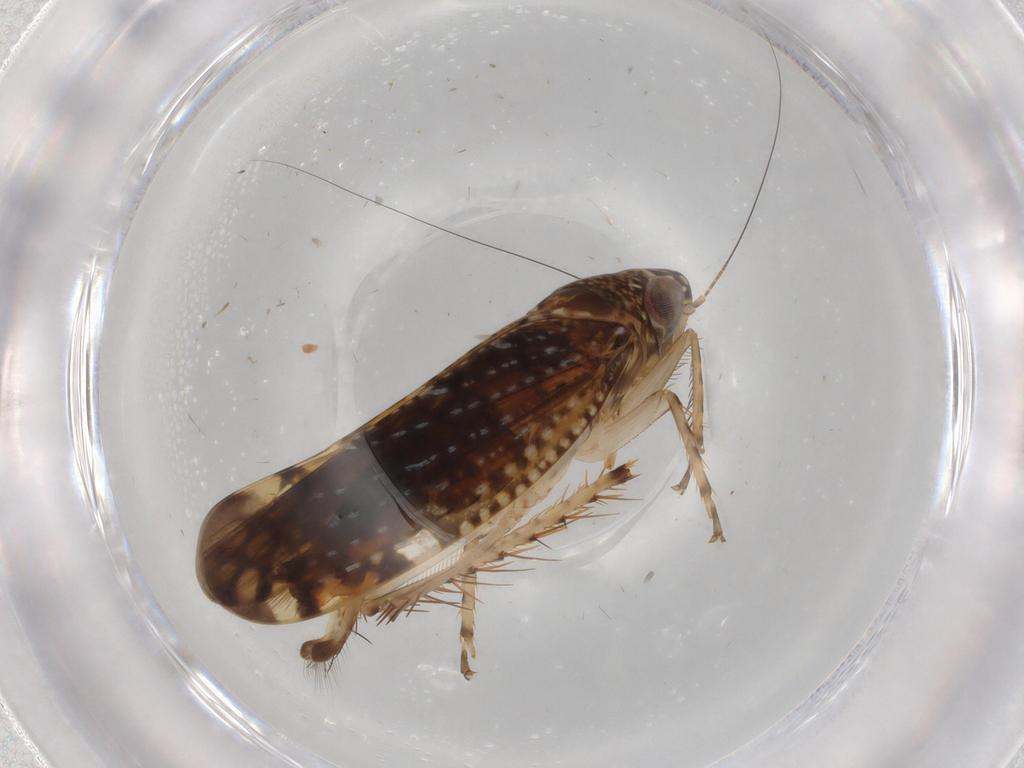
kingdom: Animalia
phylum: Arthropoda
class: Insecta
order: Hemiptera
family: Cicadellidae
